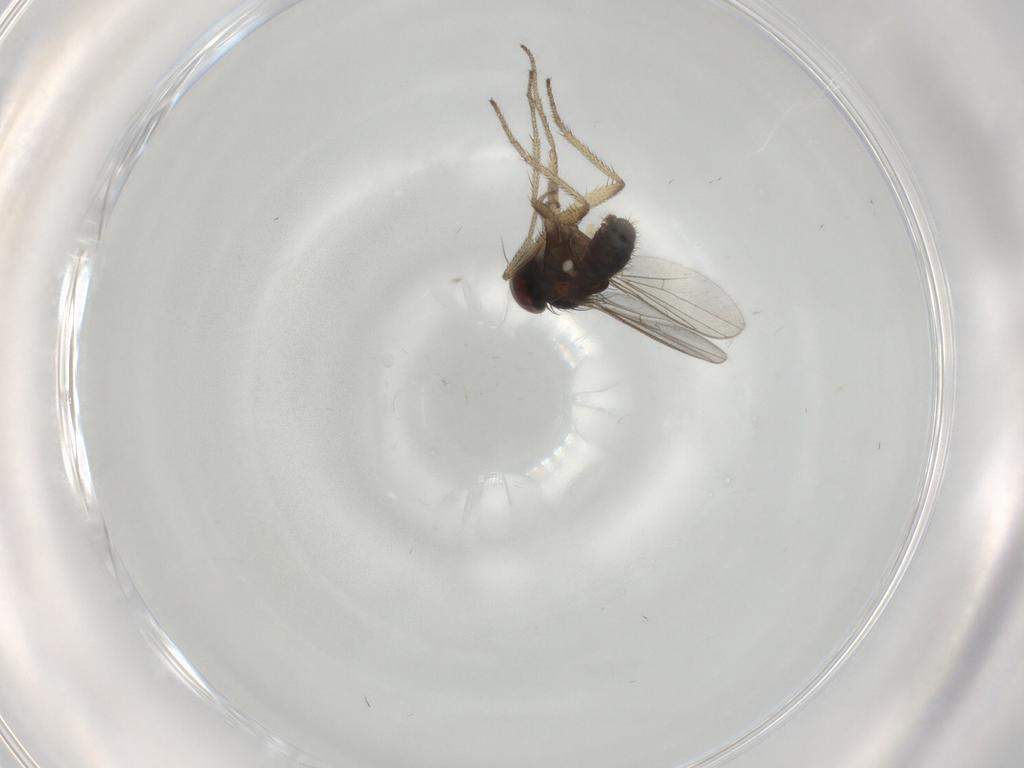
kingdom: Animalia
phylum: Arthropoda
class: Insecta
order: Diptera
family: Dolichopodidae
